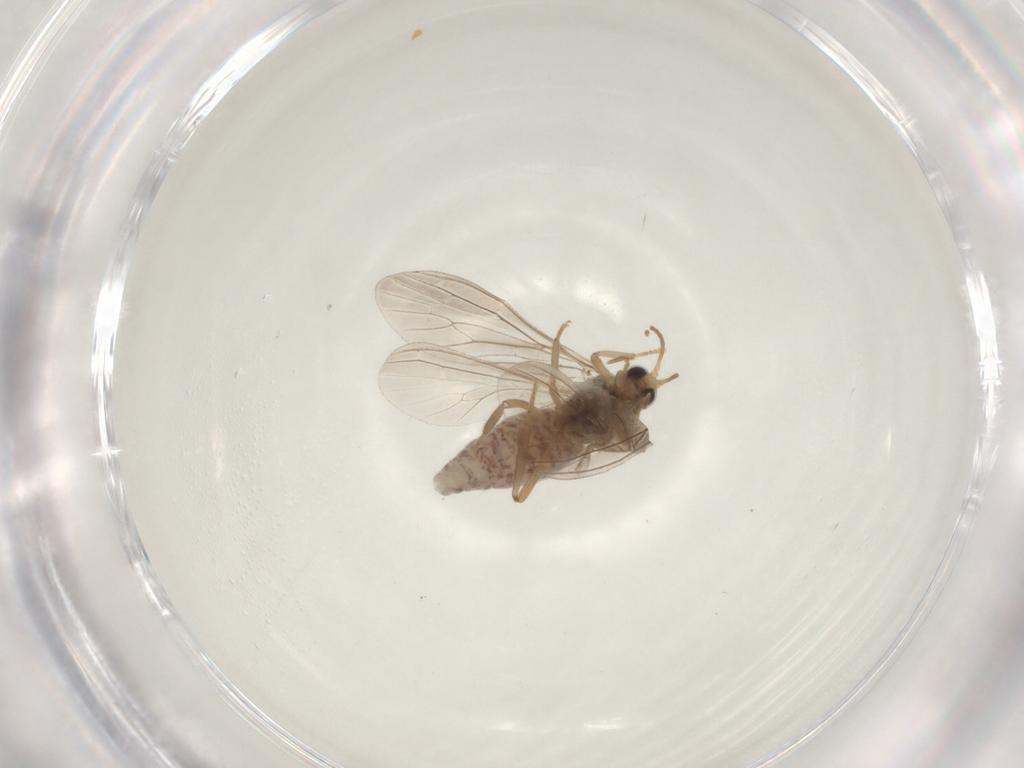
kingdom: Animalia
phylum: Arthropoda
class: Insecta
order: Neuroptera
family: Coniopterygidae
